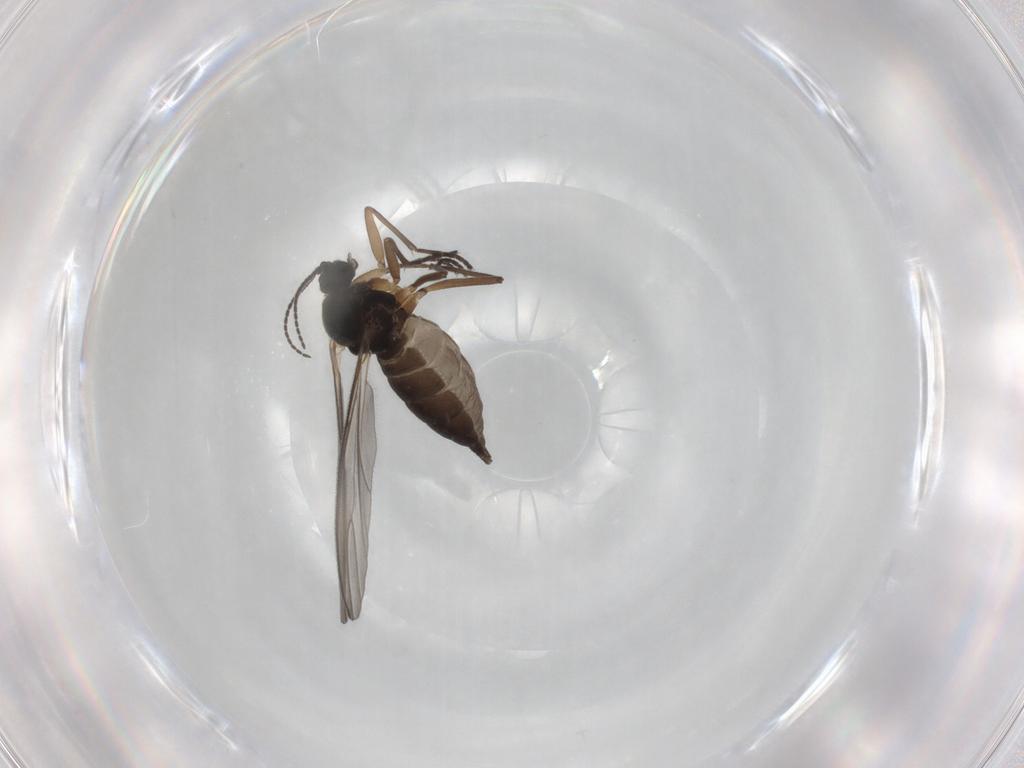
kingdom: Animalia
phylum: Arthropoda
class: Insecta
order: Diptera
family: Sciaridae
